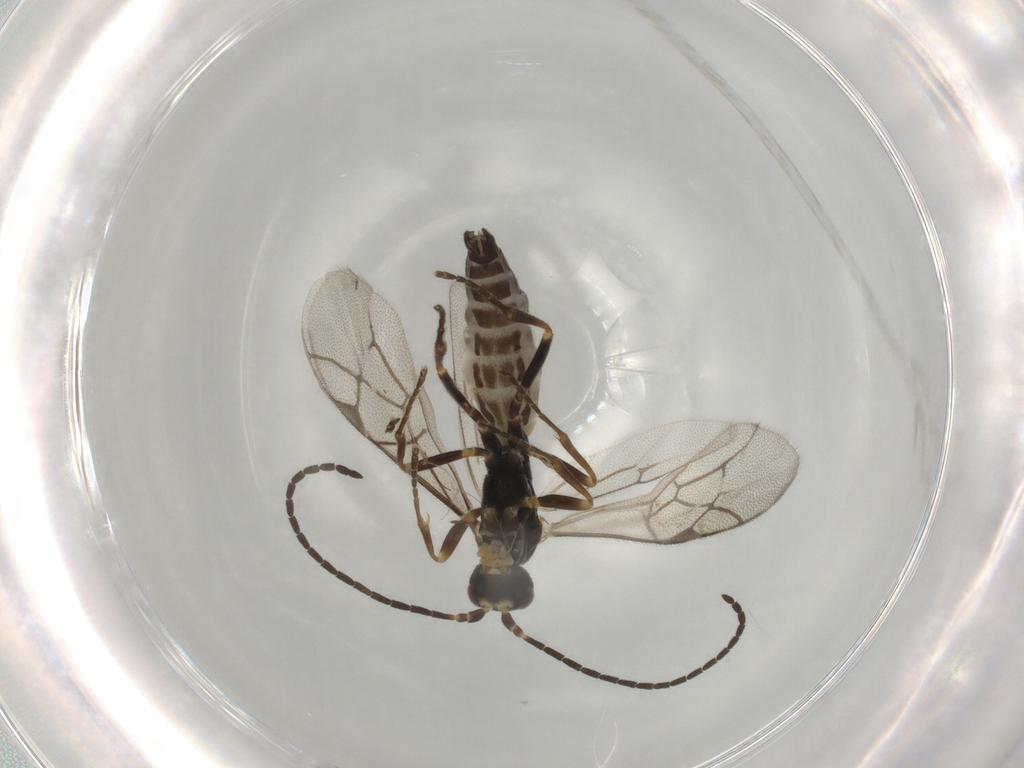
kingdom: Animalia
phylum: Arthropoda
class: Insecta
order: Hymenoptera
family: Ichneumonidae
